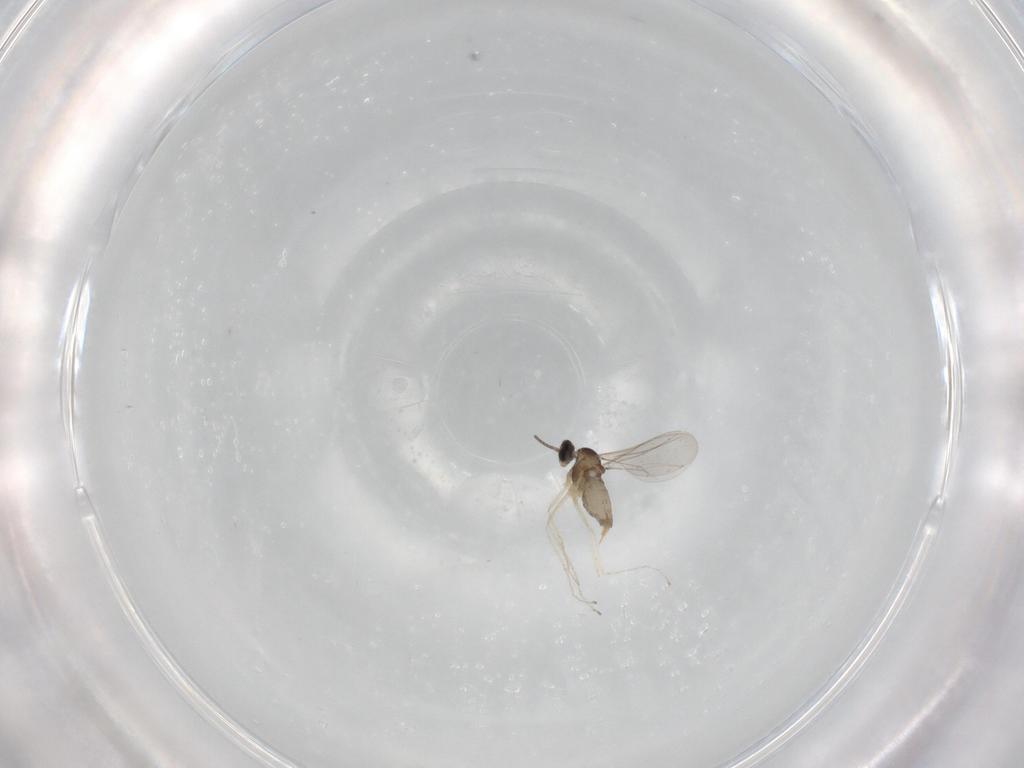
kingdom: Animalia
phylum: Arthropoda
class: Insecta
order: Diptera
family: Cecidomyiidae
